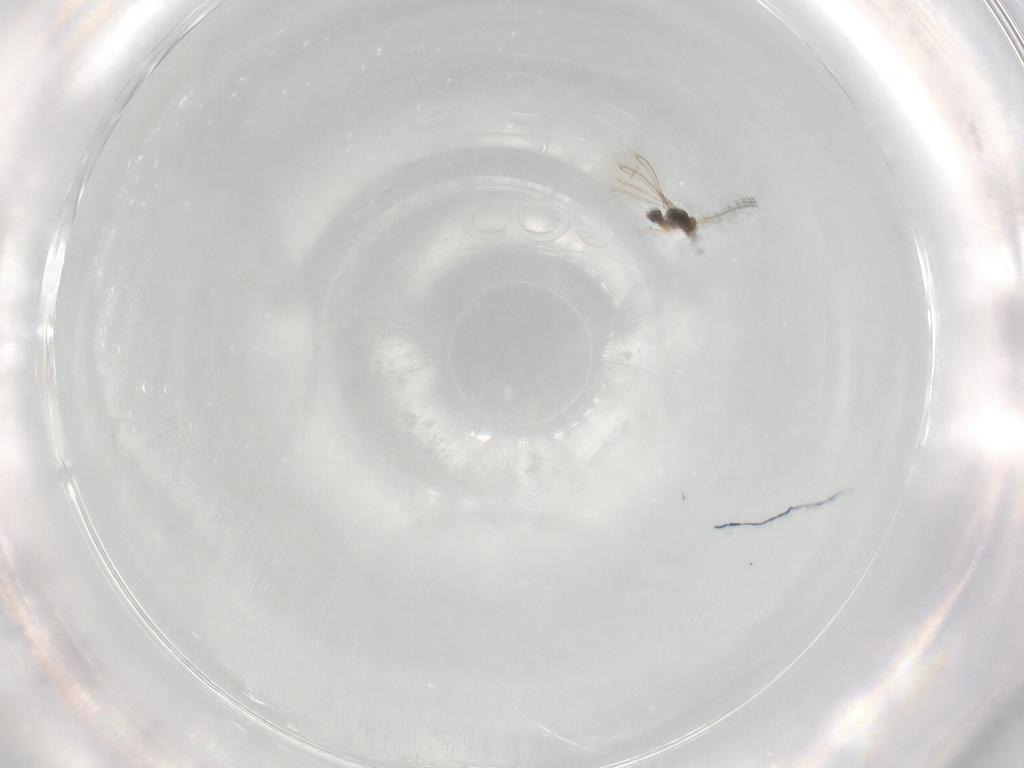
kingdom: Animalia
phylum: Arthropoda
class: Insecta
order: Hymenoptera
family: Mymaridae
